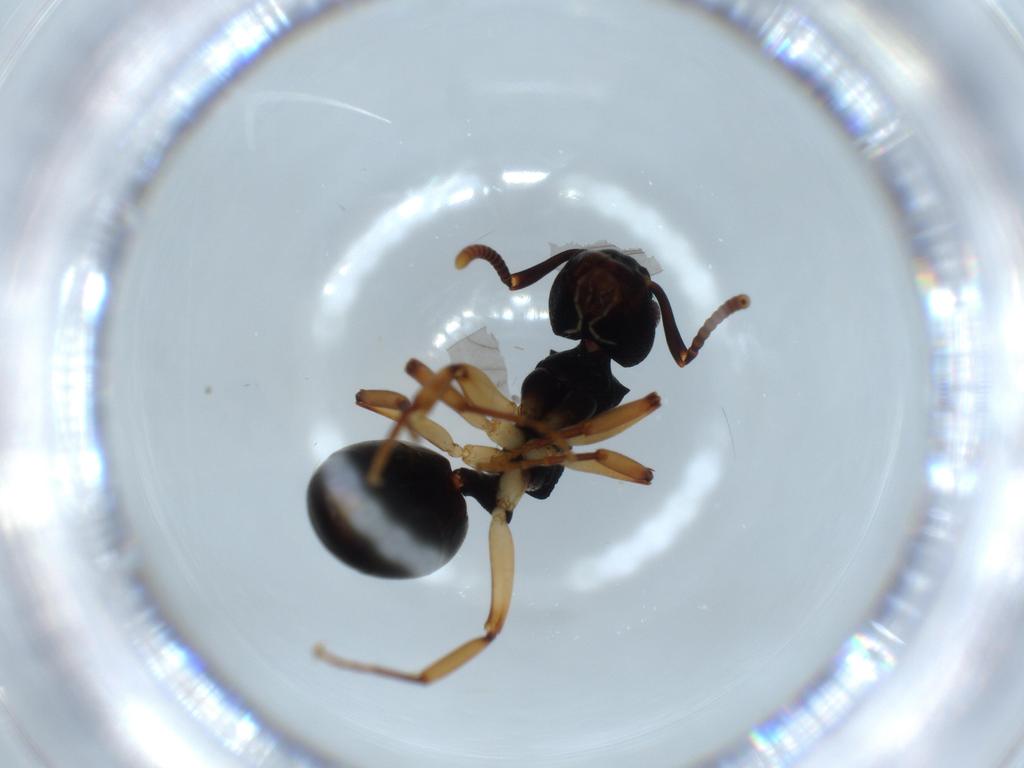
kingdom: Animalia
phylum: Arthropoda
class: Insecta
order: Hymenoptera
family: Formicidae
